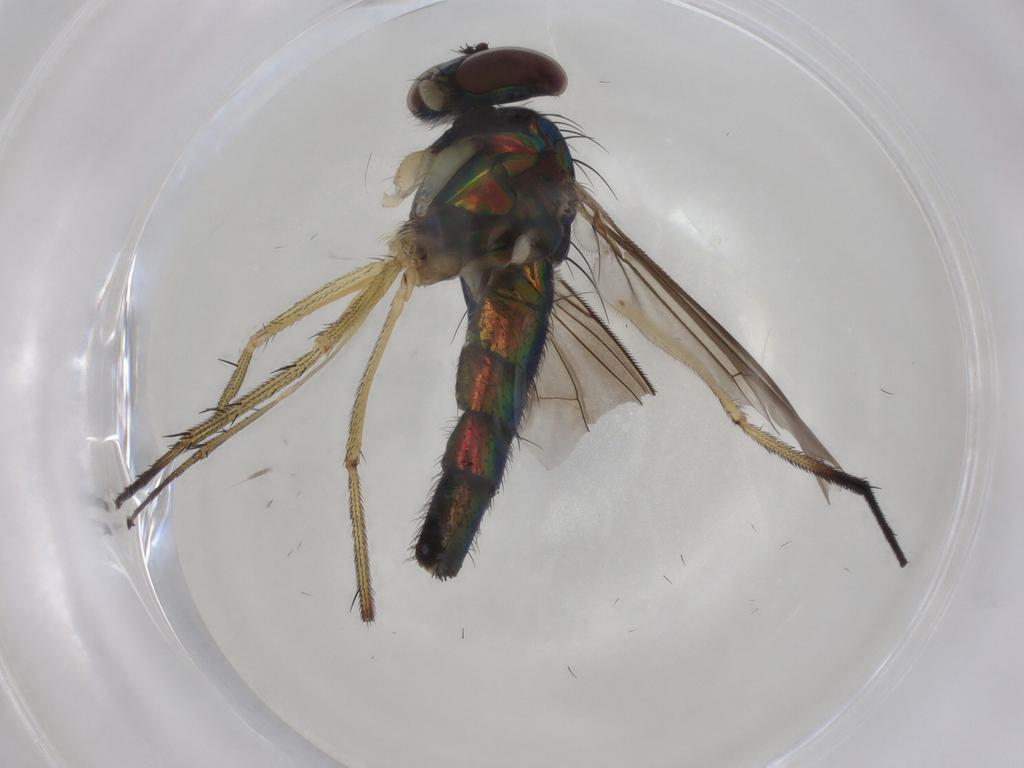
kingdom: Animalia
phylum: Arthropoda
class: Insecta
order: Diptera
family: Dolichopodidae
